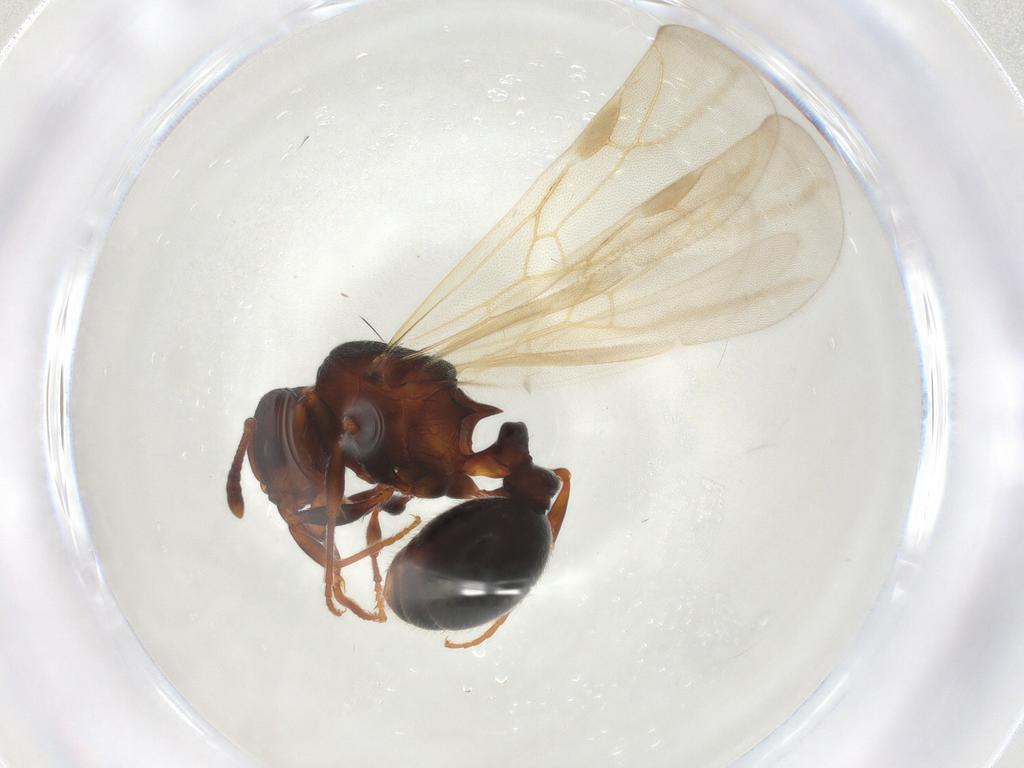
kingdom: Animalia
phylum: Arthropoda
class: Insecta
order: Hymenoptera
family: Formicidae
